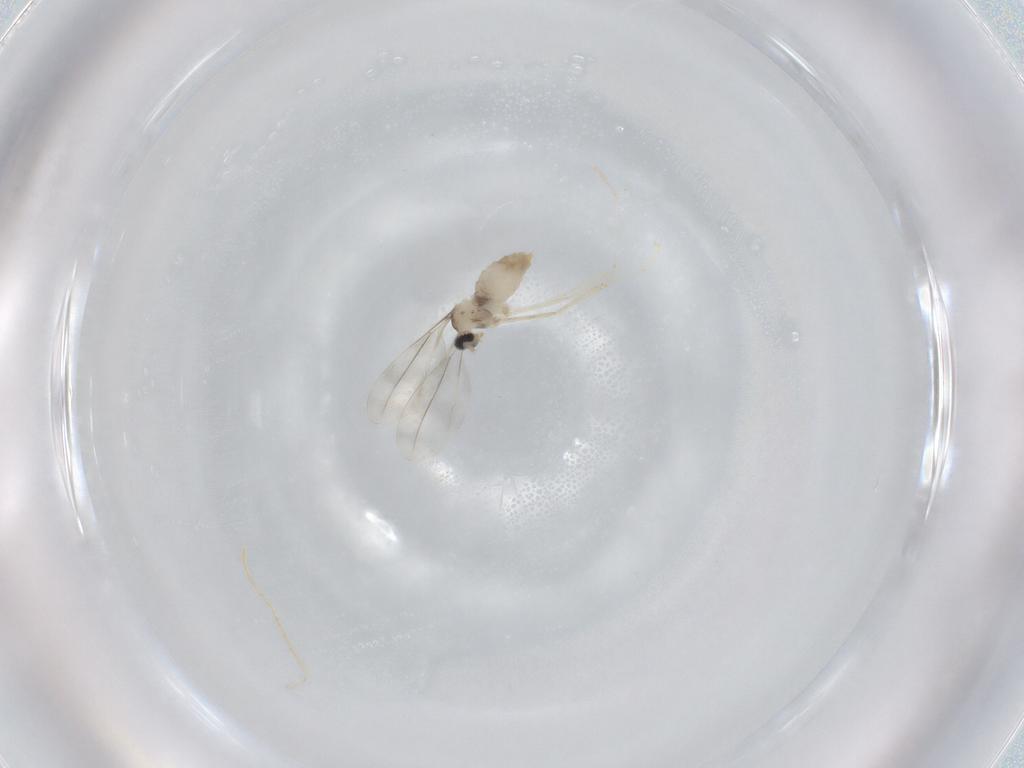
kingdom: Animalia
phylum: Arthropoda
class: Insecta
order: Diptera
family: Cecidomyiidae
